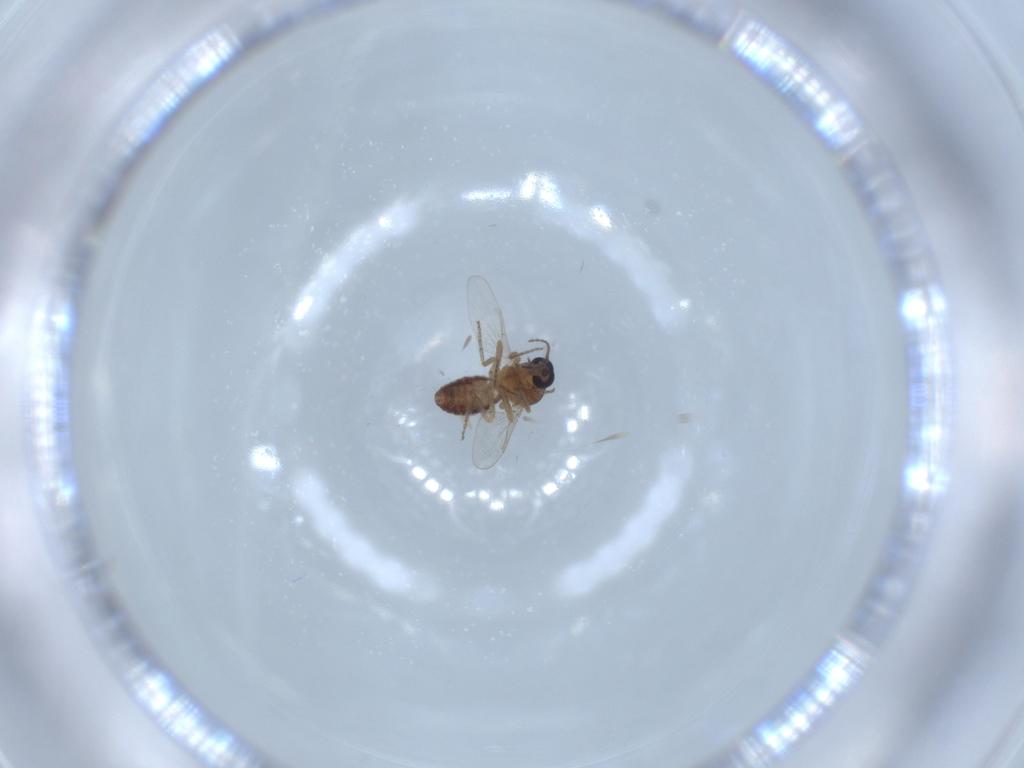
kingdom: Animalia
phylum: Arthropoda
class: Insecta
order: Diptera
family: Ceratopogonidae
